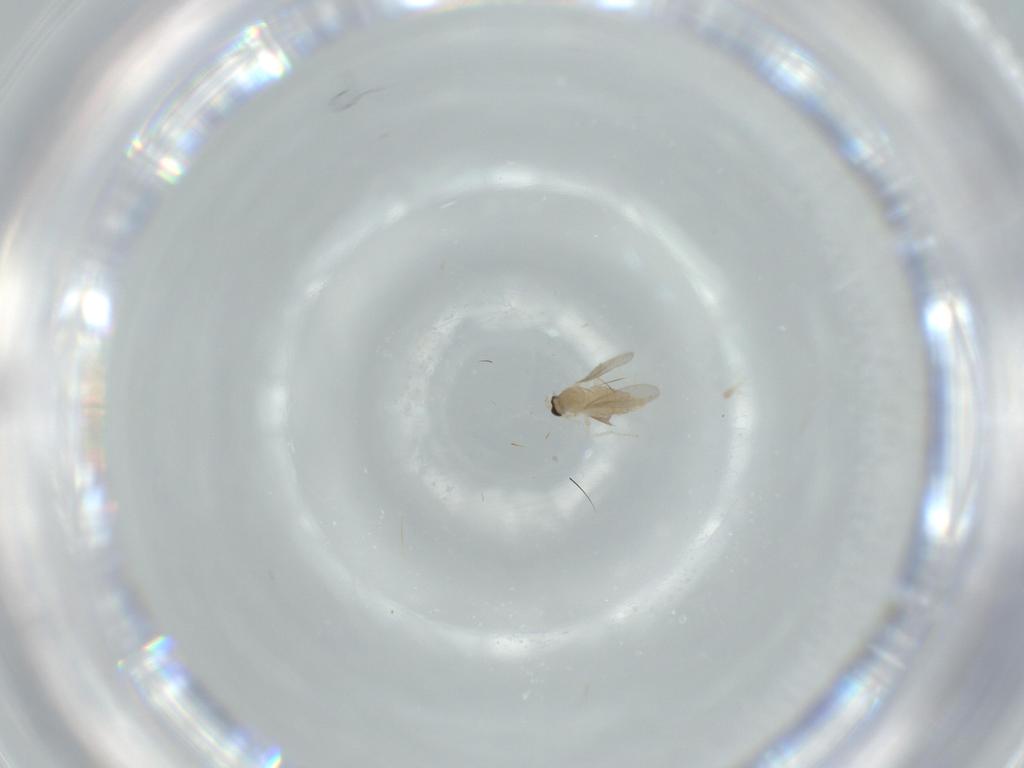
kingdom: Animalia
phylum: Arthropoda
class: Insecta
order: Diptera
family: Cecidomyiidae
